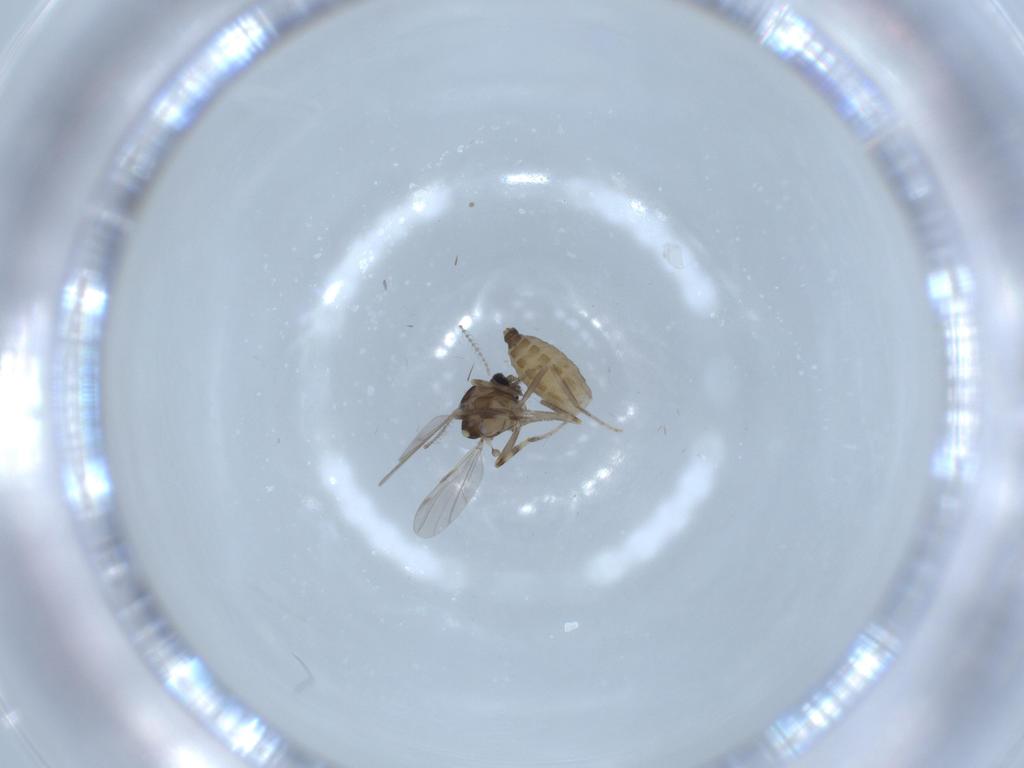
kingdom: Animalia
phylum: Arthropoda
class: Insecta
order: Diptera
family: Ceratopogonidae
